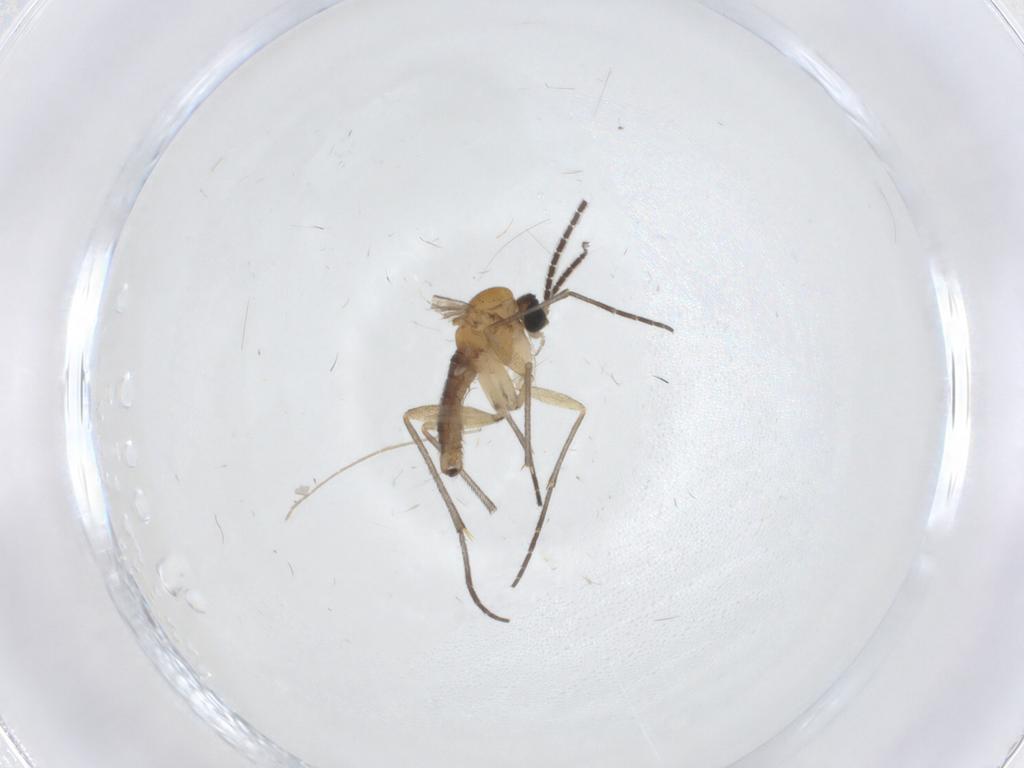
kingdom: Animalia
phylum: Arthropoda
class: Insecta
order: Diptera
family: Sciaridae
